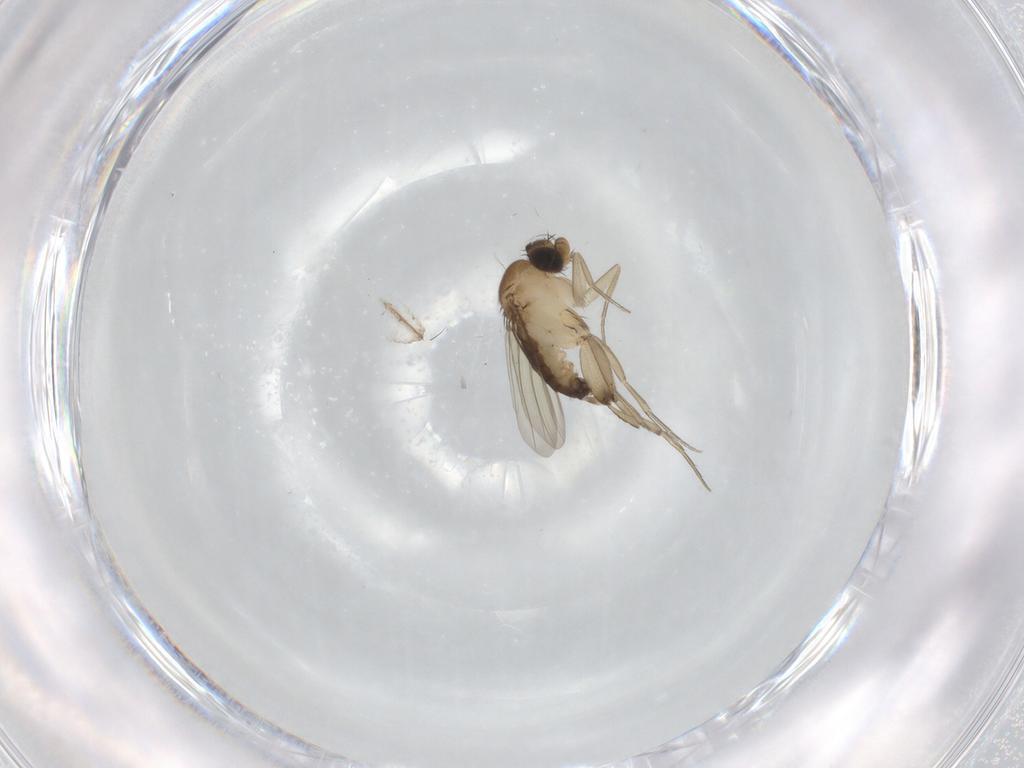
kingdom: Animalia
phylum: Arthropoda
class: Insecta
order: Diptera
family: Phoridae
